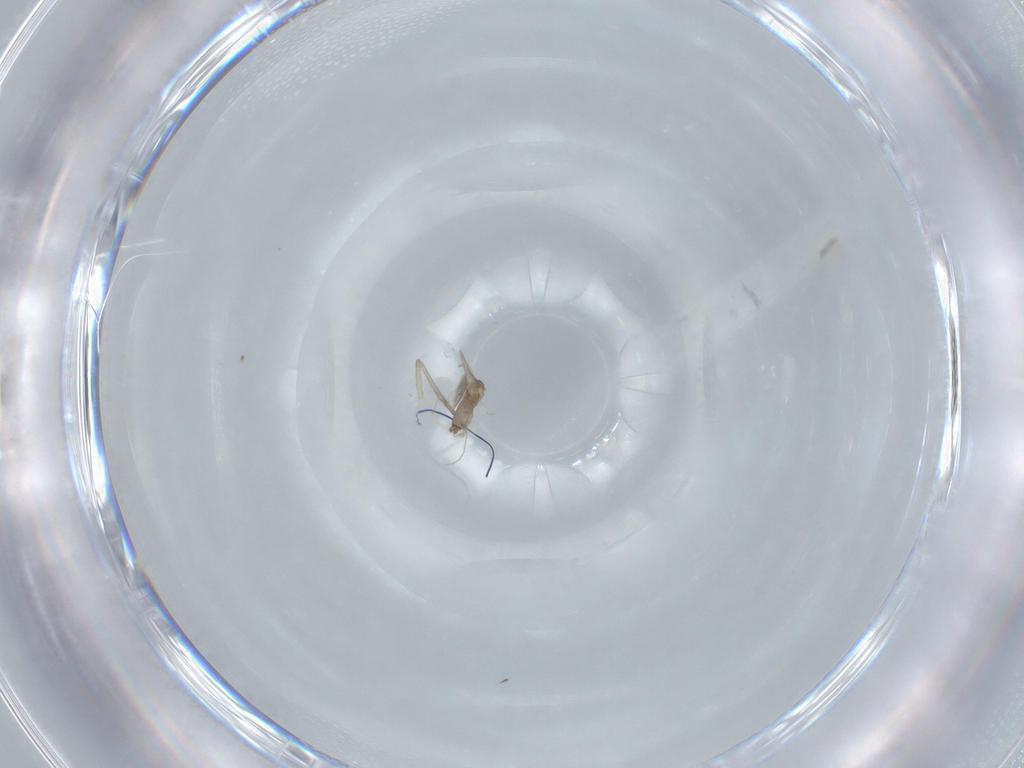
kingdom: Animalia
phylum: Arthropoda
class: Insecta
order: Diptera
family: Cecidomyiidae
